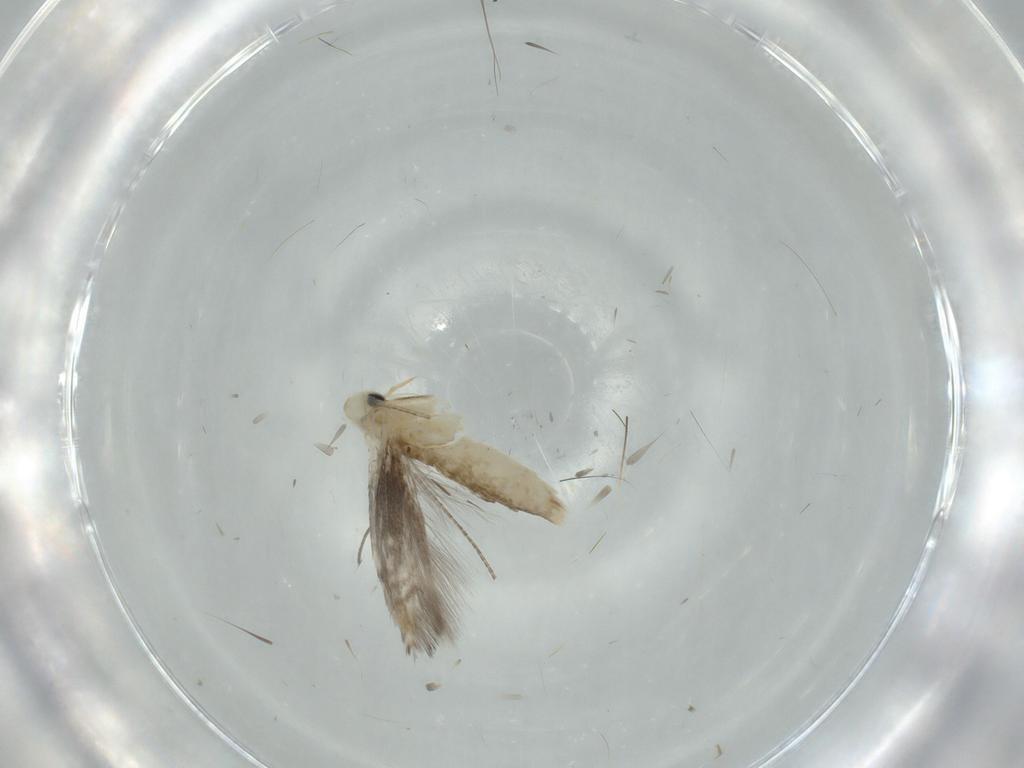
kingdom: Animalia
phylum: Arthropoda
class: Insecta
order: Lepidoptera
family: Gracillariidae
